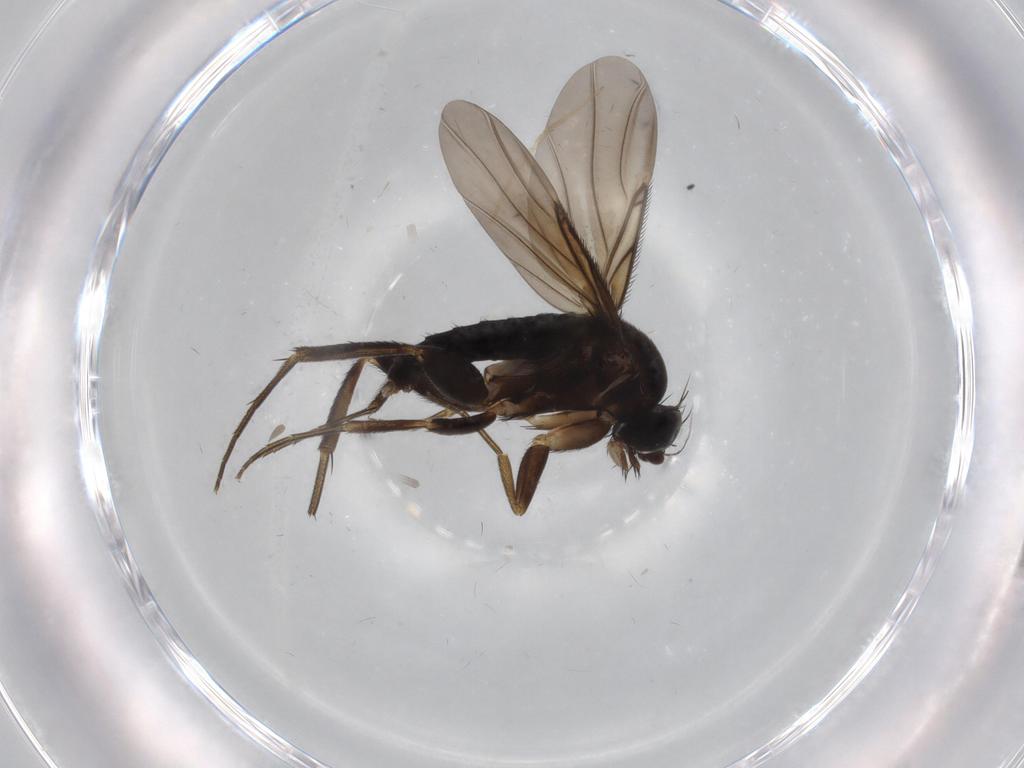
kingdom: Animalia
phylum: Arthropoda
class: Insecta
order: Diptera
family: Phoridae
